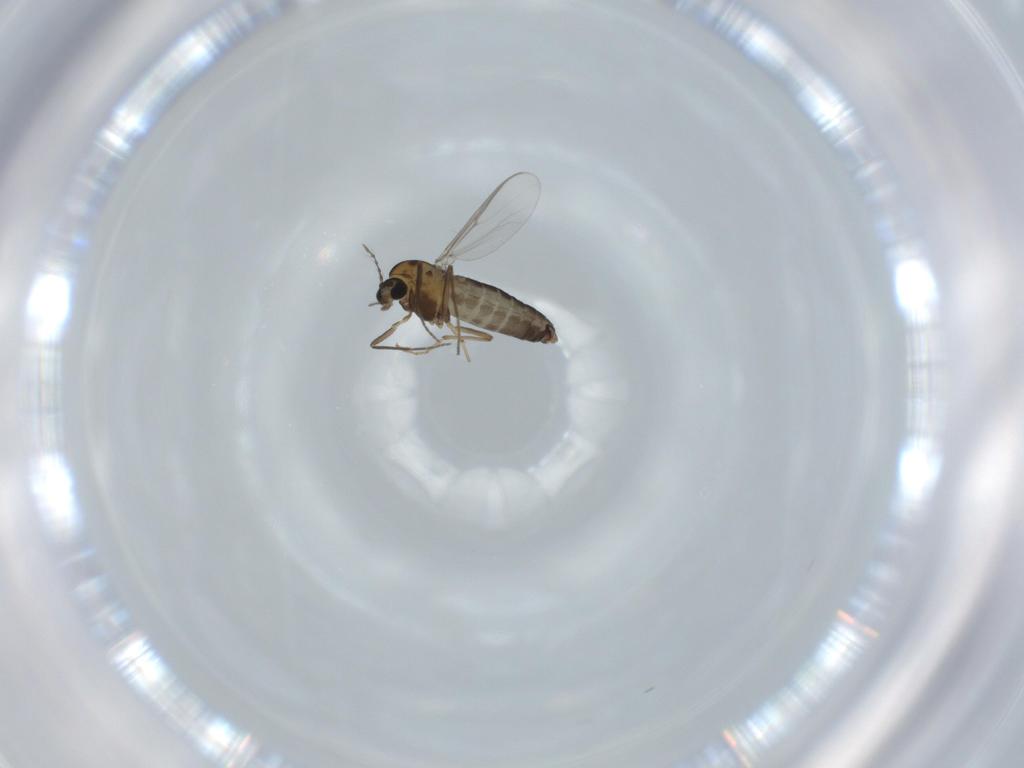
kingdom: Animalia
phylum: Arthropoda
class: Insecta
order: Diptera
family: Chironomidae
